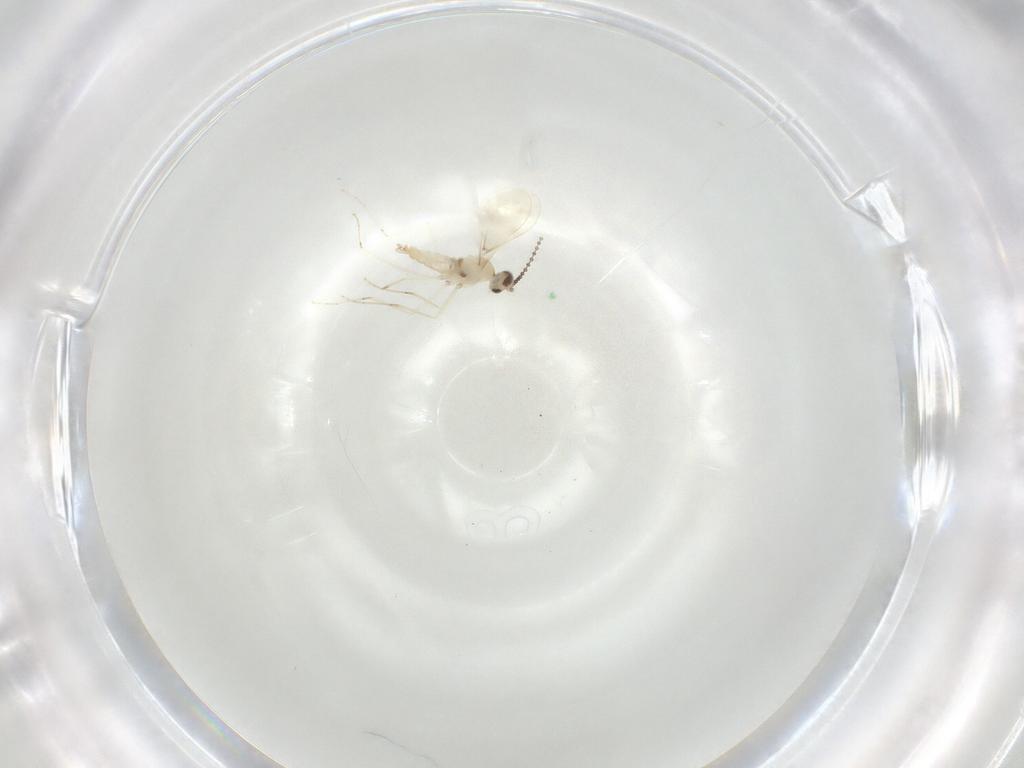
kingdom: Animalia
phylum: Arthropoda
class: Insecta
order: Diptera
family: Cecidomyiidae
